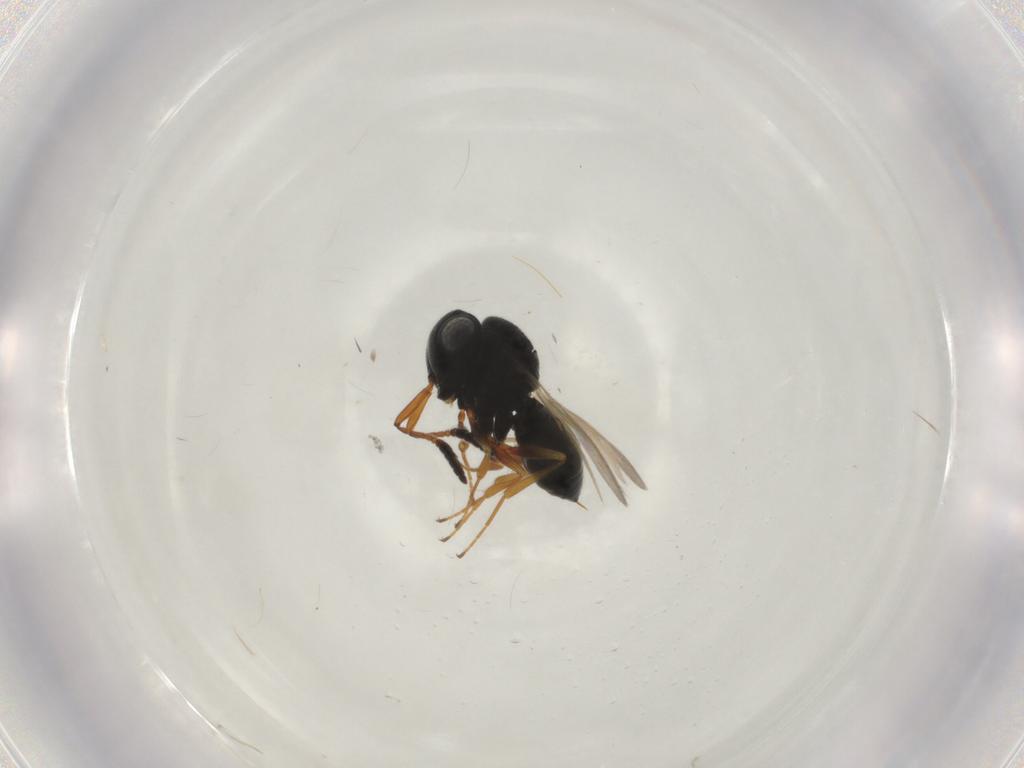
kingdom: Animalia
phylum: Arthropoda
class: Insecta
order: Hymenoptera
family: Scelionidae
